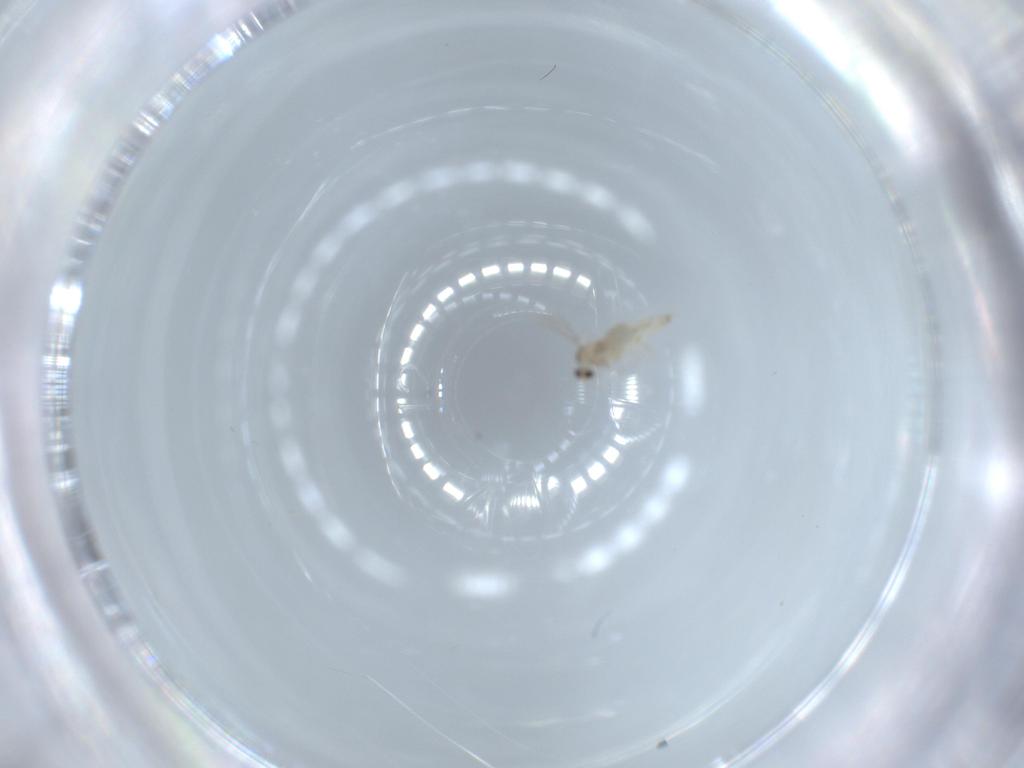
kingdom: Animalia
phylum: Arthropoda
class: Insecta
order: Diptera
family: Cecidomyiidae
